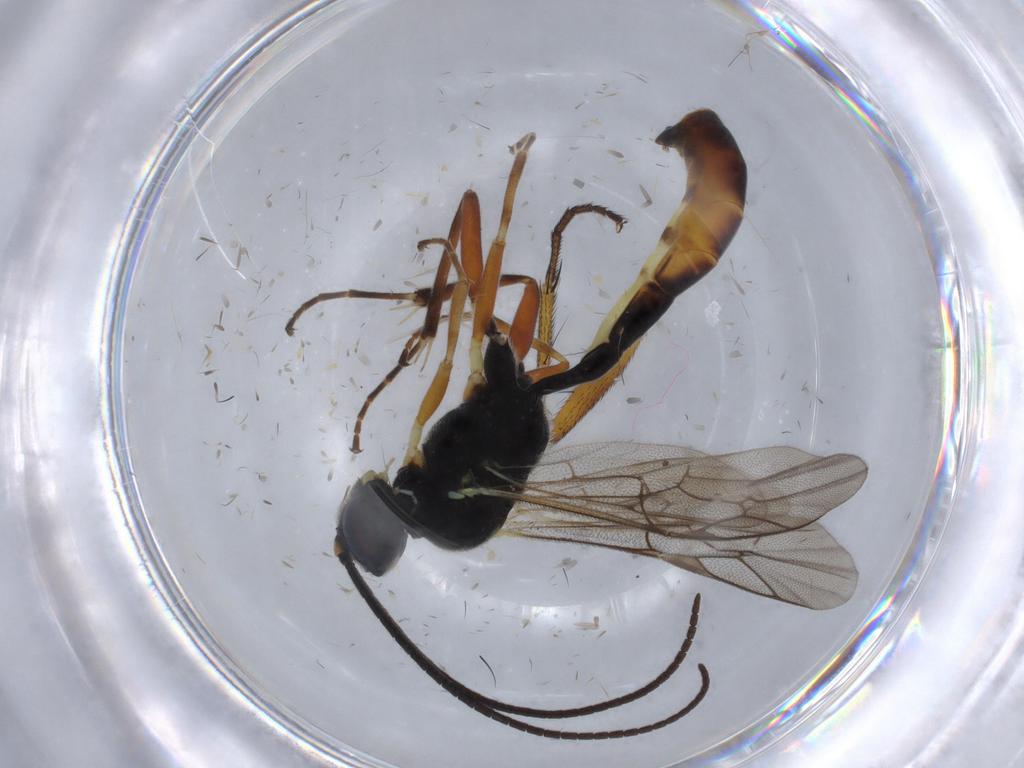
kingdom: Animalia
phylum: Arthropoda
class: Insecta
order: Hymenoptera
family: Ichneumonidae
